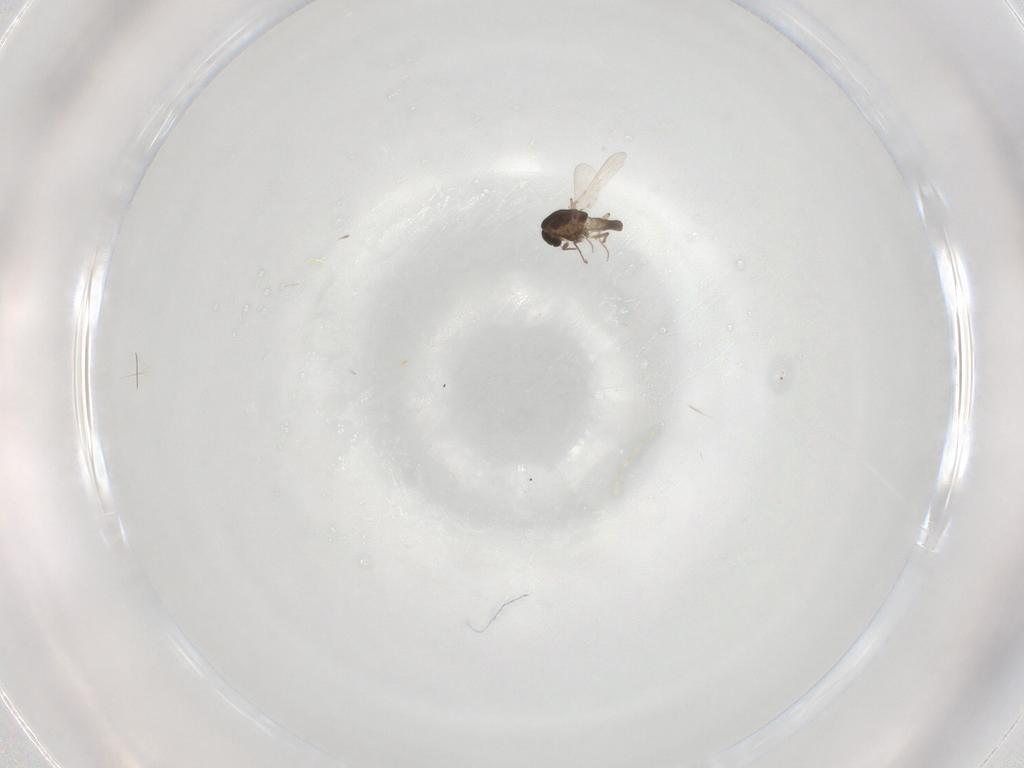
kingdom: Animalia
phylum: Arthropoda
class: Insecta
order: Diptera
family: Chironomidae
